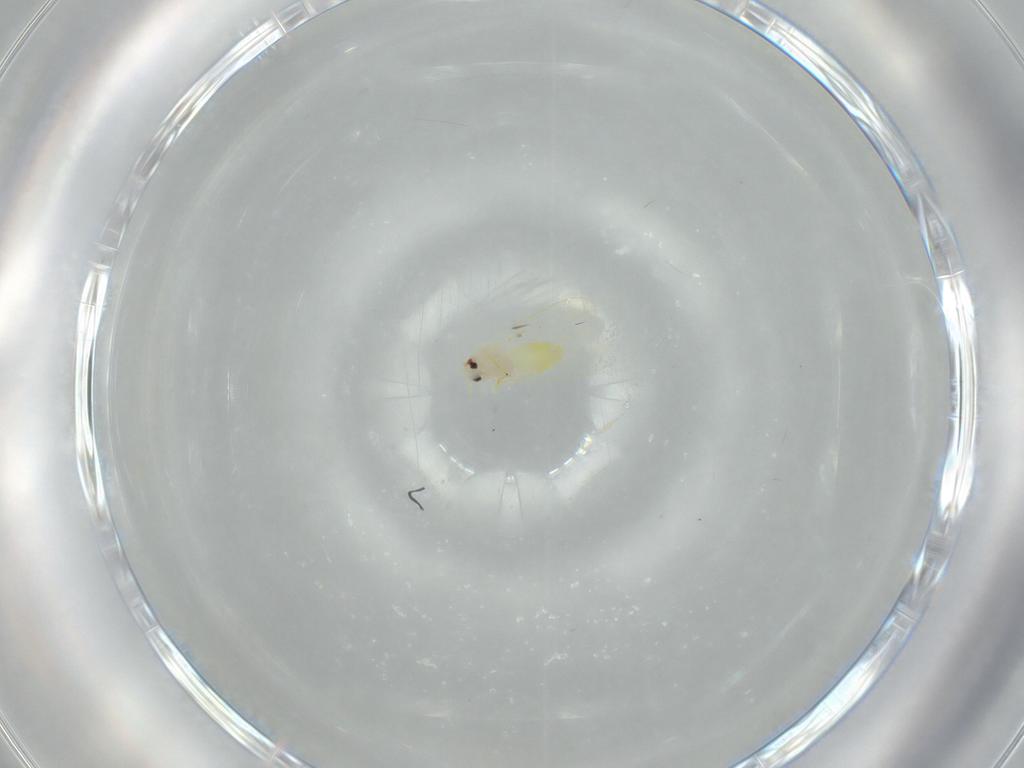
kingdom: Animalia
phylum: Arthropoda
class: Insecta
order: Hemiptera
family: Aleyrodidae
